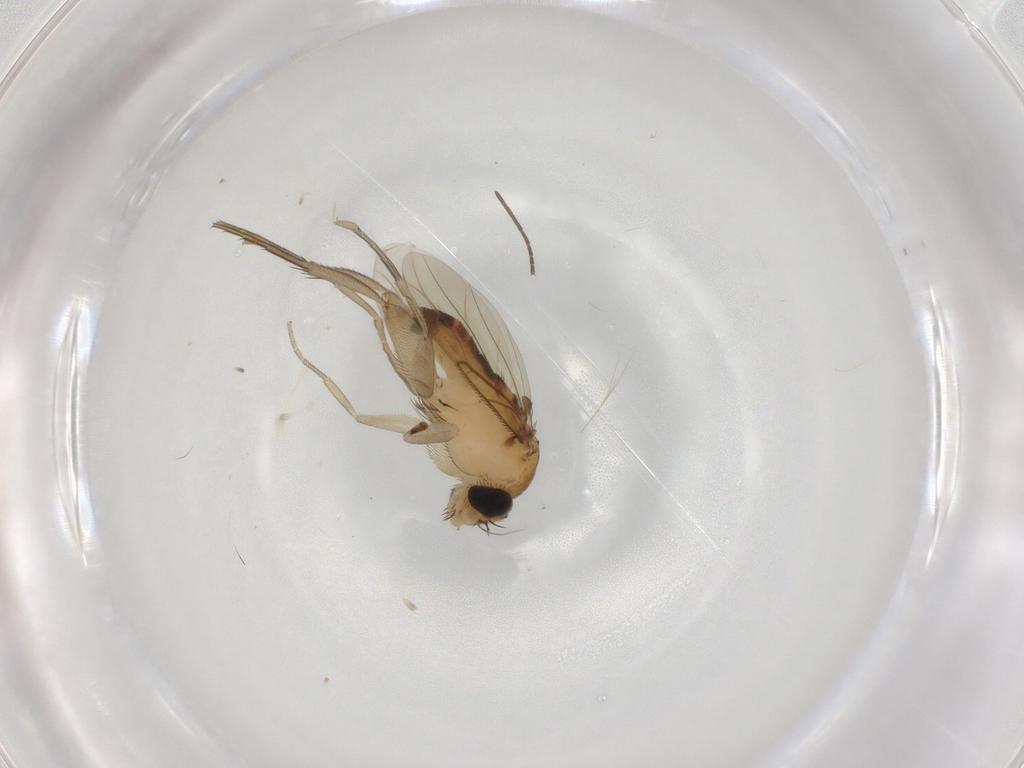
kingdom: Animalia
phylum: Arthropoda
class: Insecta
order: Diptera
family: Phoridae
